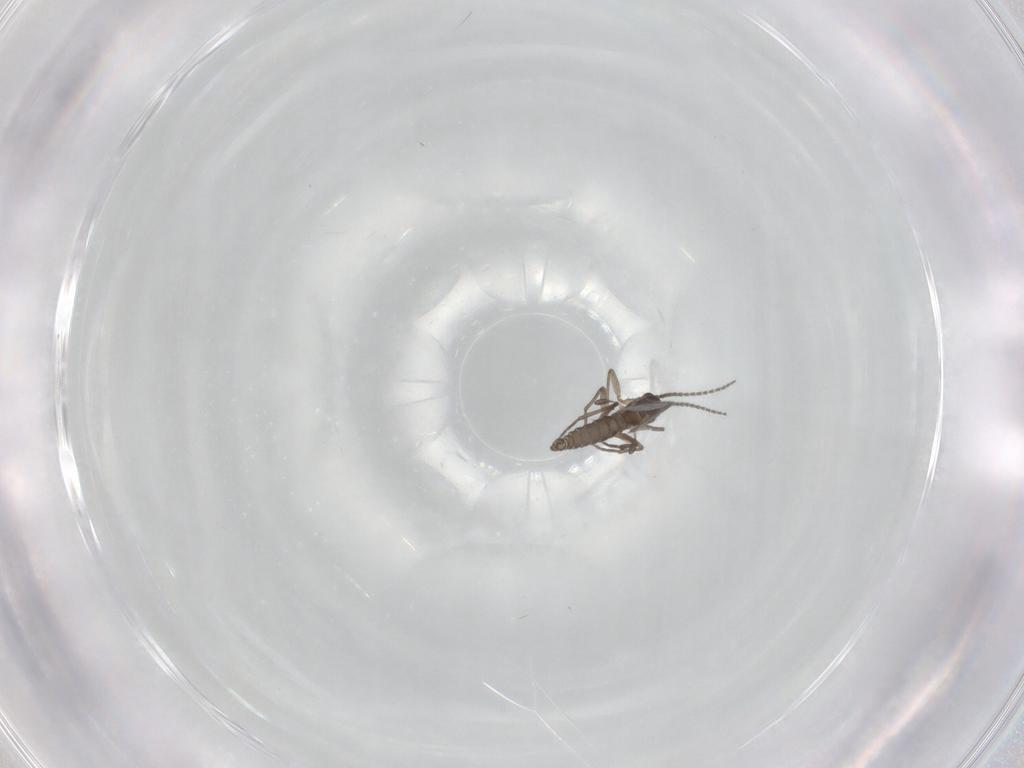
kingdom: Animalia
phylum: Arthropoda
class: Insecta
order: Diptera
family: Sciaridae
